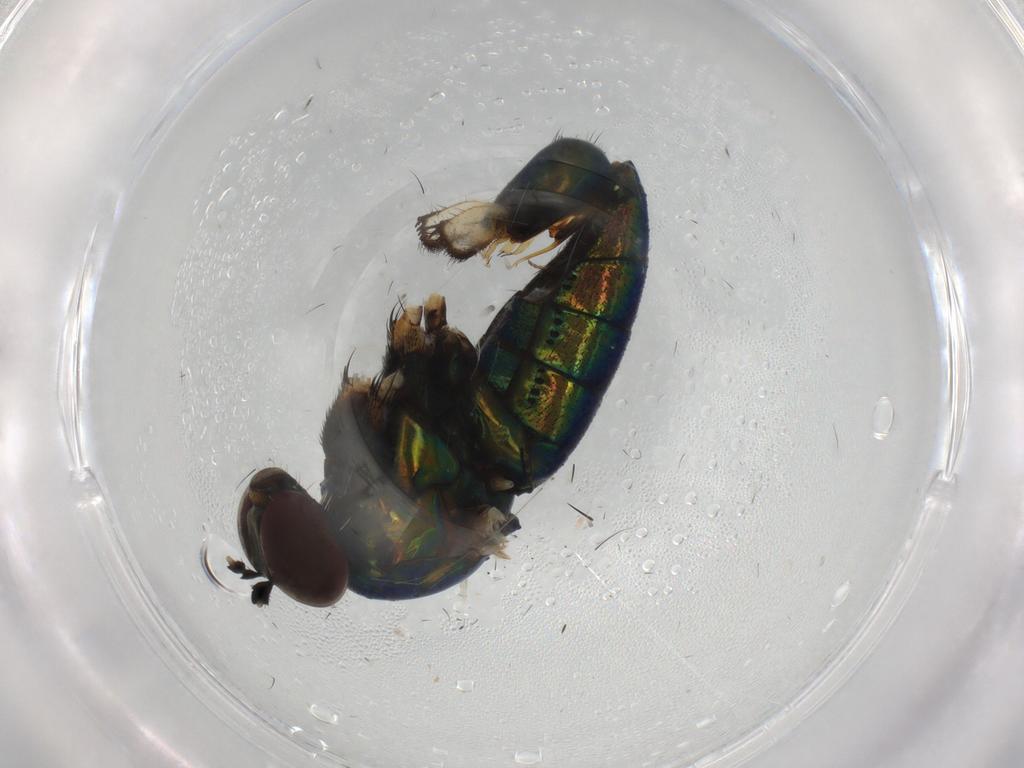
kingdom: Animalia
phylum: Arthropoda
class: Insecta
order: Diptera
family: Dolichopodidae
